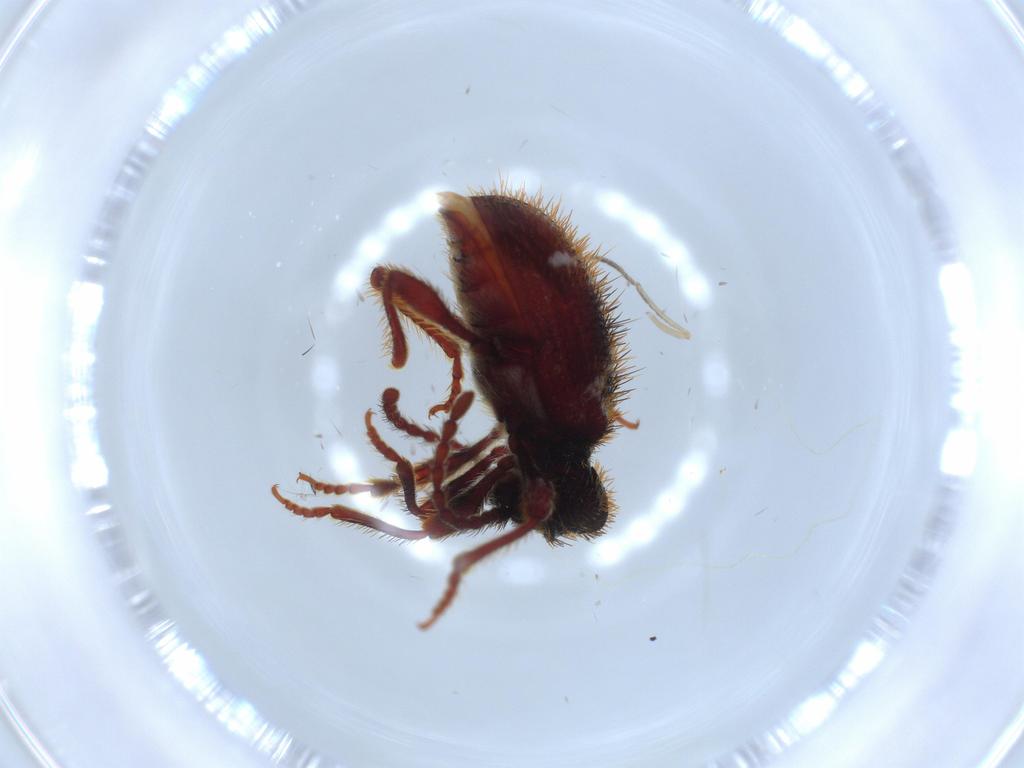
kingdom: Animalia
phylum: Arthropoda
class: Insecta
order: Coleoptera
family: Ptinidae
